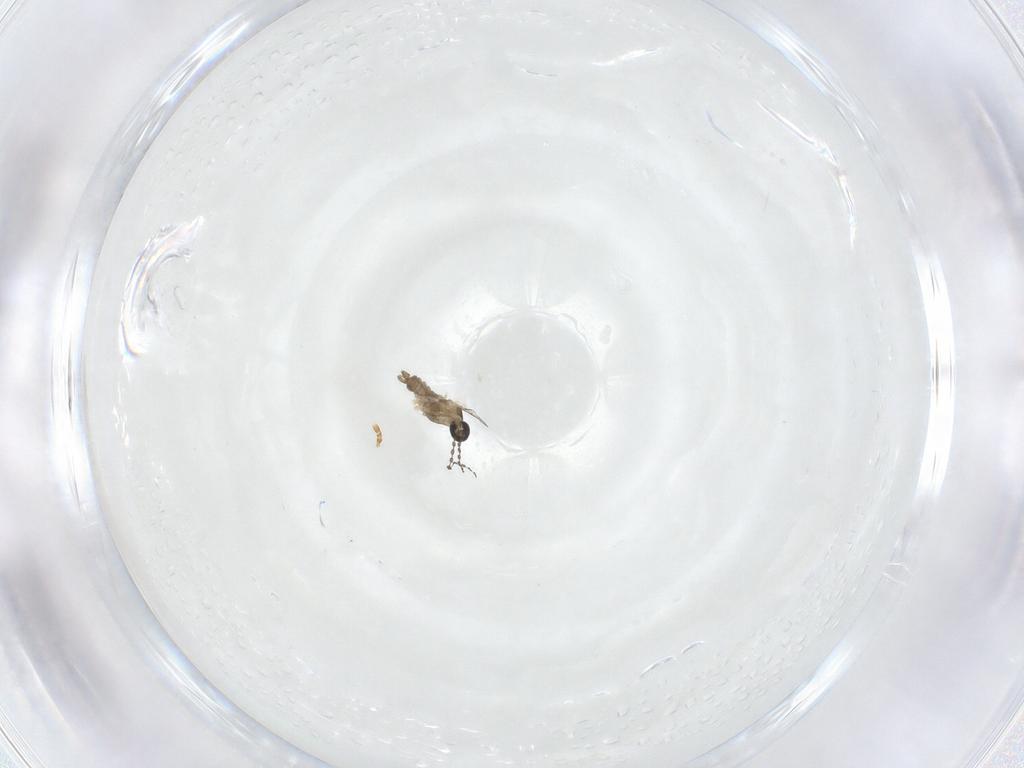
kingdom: Animalia
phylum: Arthropoda
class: Insecta
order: Diptera
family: Cecidomyiidae
